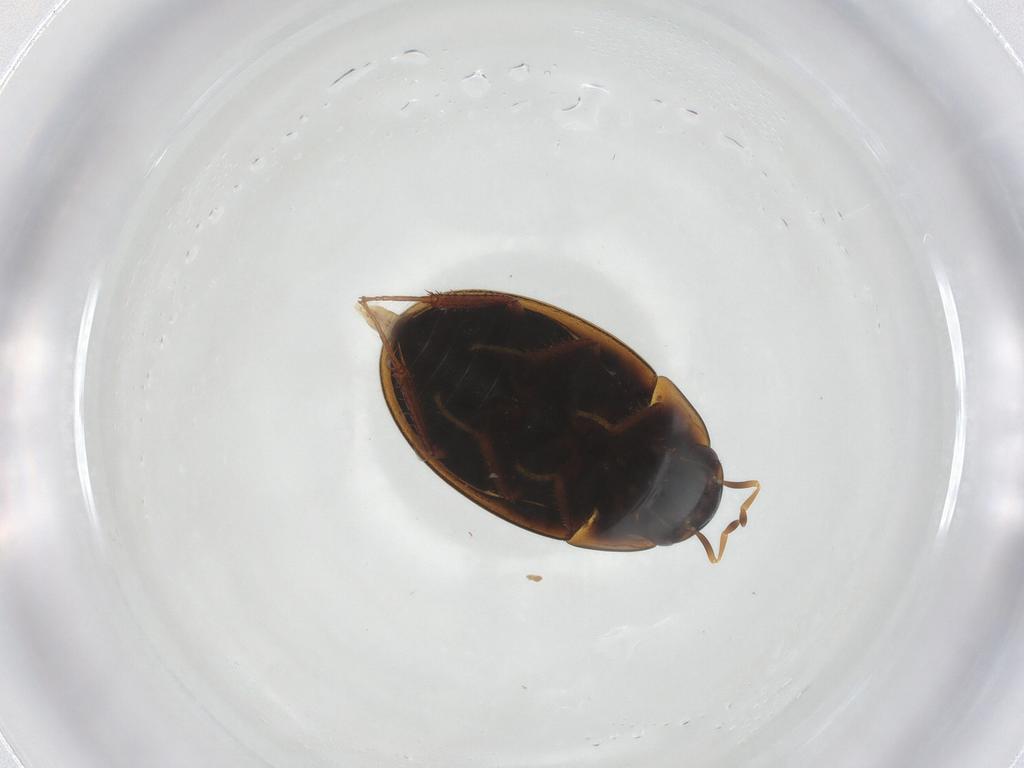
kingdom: Animalia
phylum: Arthropoda
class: Insecta
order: Coleoptera
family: Hydrophilidae
